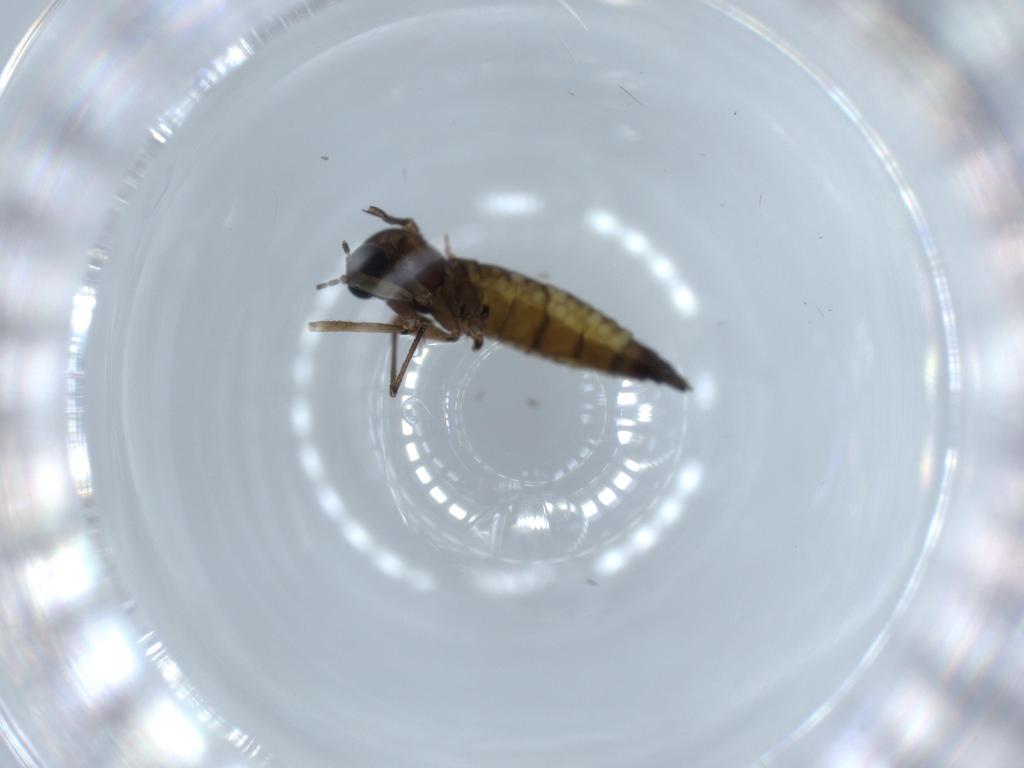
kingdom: Animalia
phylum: Arthropoda
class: Insecta
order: Diptera
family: Sciaridae
